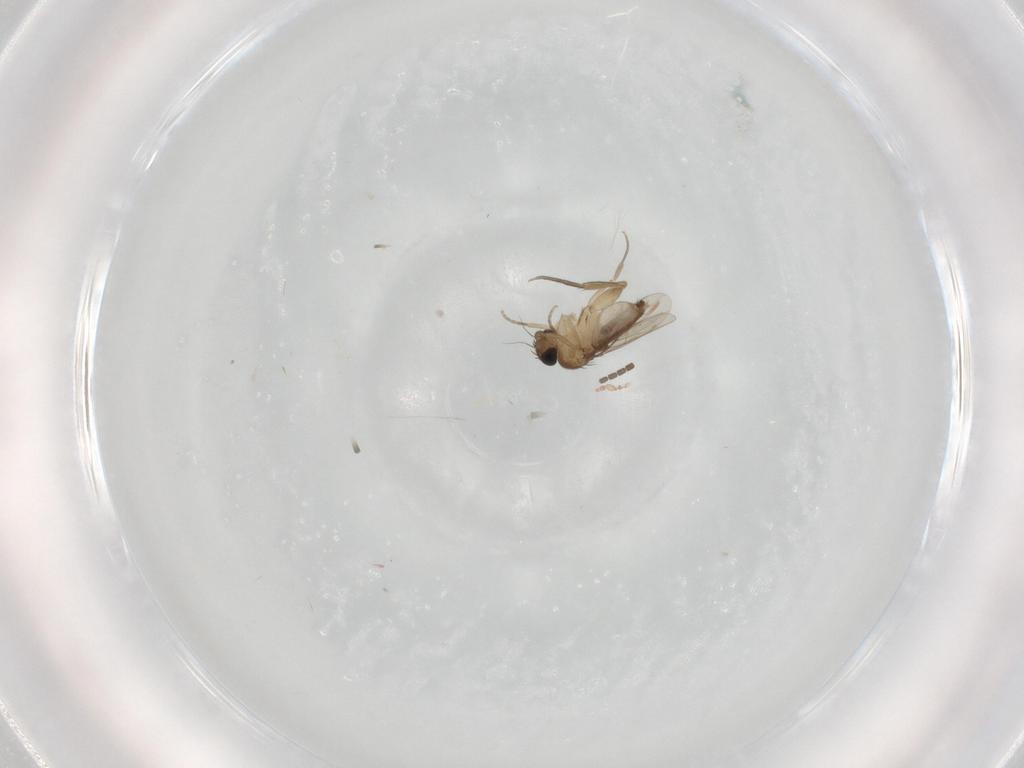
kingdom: Animalia
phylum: Arthropoda
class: Insecta
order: Diptera
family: Phoridae
